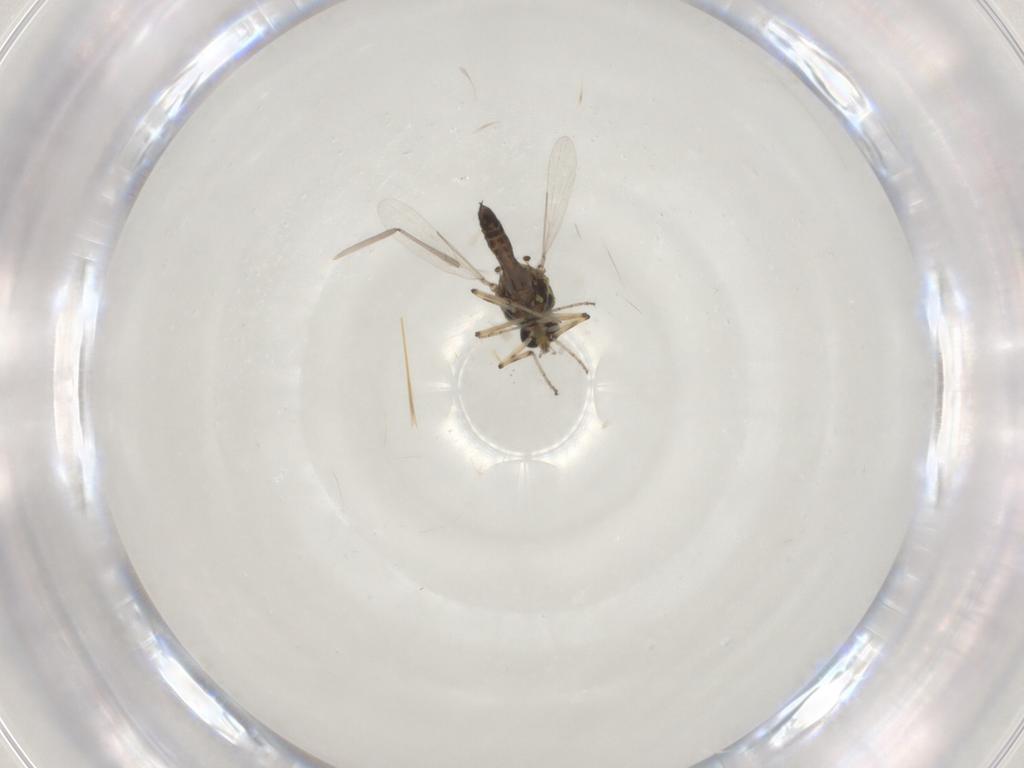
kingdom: Animalia
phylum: Arthropoda
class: Insecta
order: Diptera
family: Ceratopogonidae
